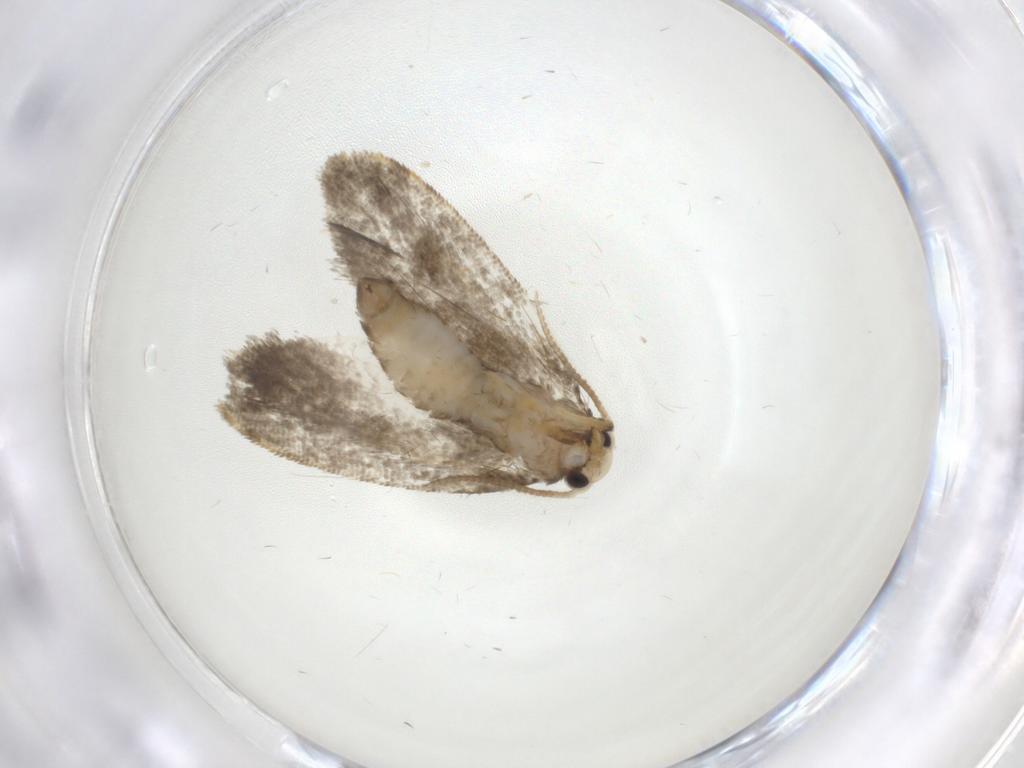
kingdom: Animalia
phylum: Arthropoda
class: Insecta
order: Lepidoptera
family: Psychidae
